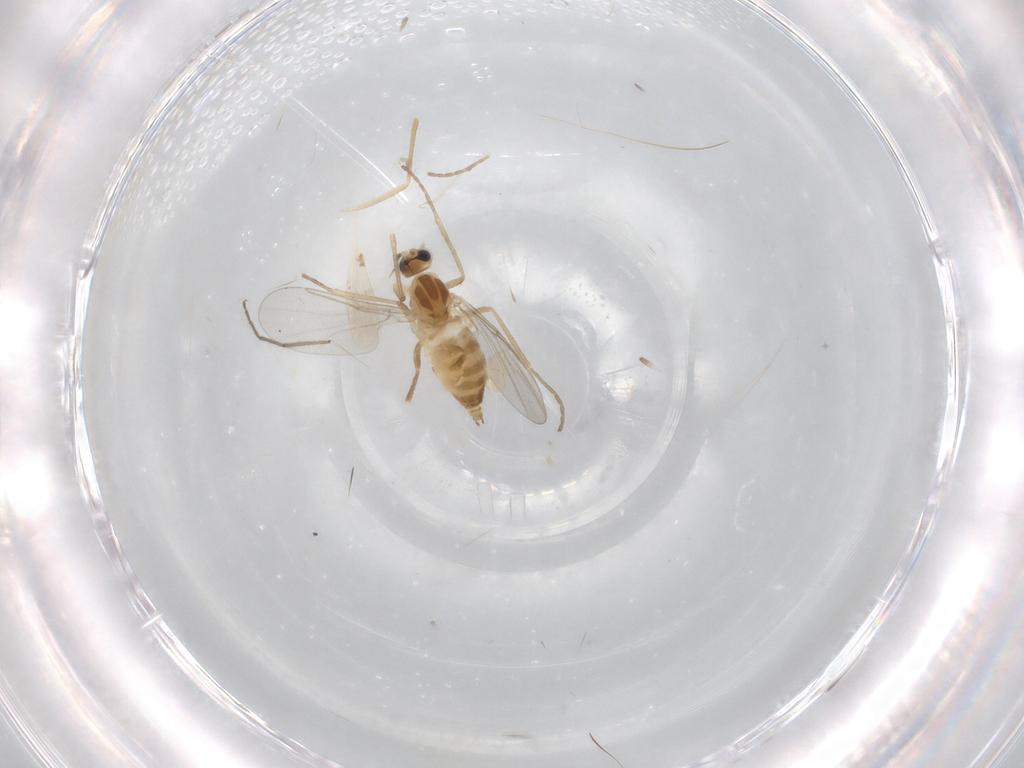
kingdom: Animalia
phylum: Arthropoda
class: Insecta
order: Diptera
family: Cecidomyiidae
